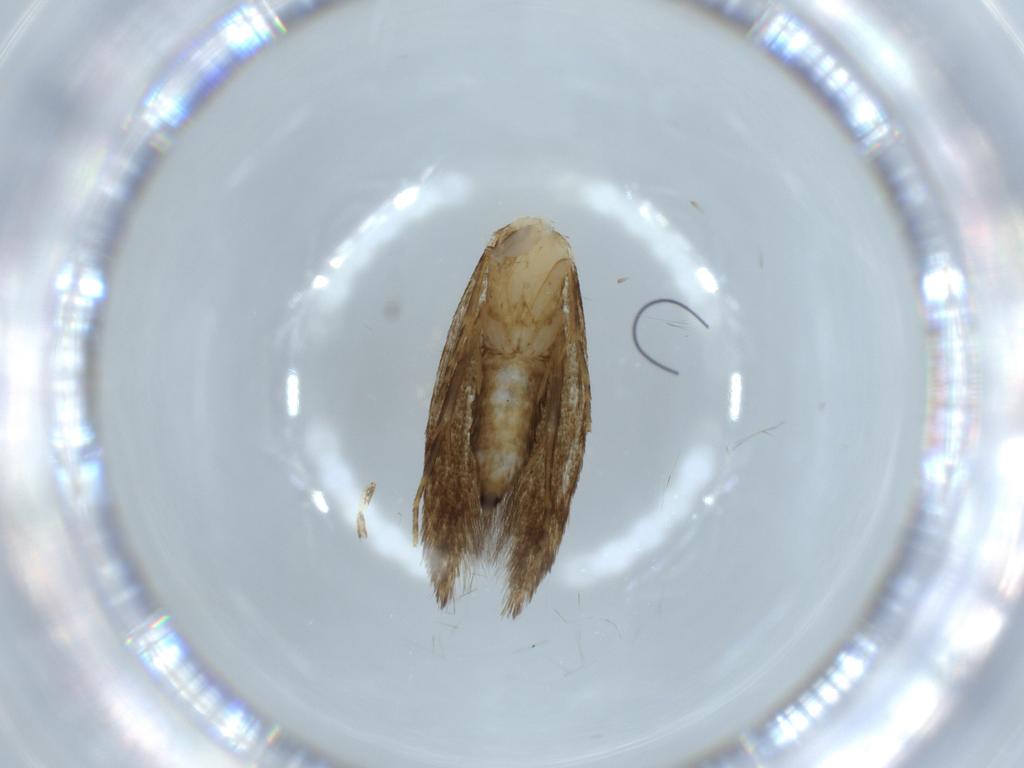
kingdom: Animalia
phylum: Arthropoda
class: Insecta
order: Lepidoptera
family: Tineidae
